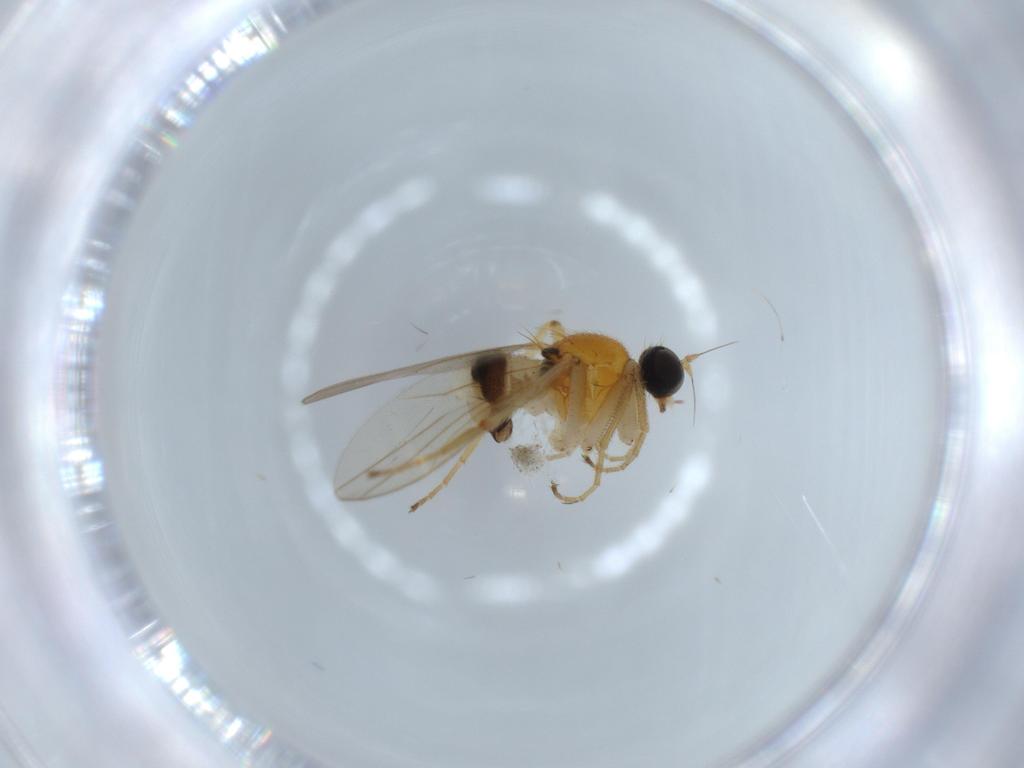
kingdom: Animalia
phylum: Arthropoda
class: Insecta
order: Diptera
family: Hybotidae
